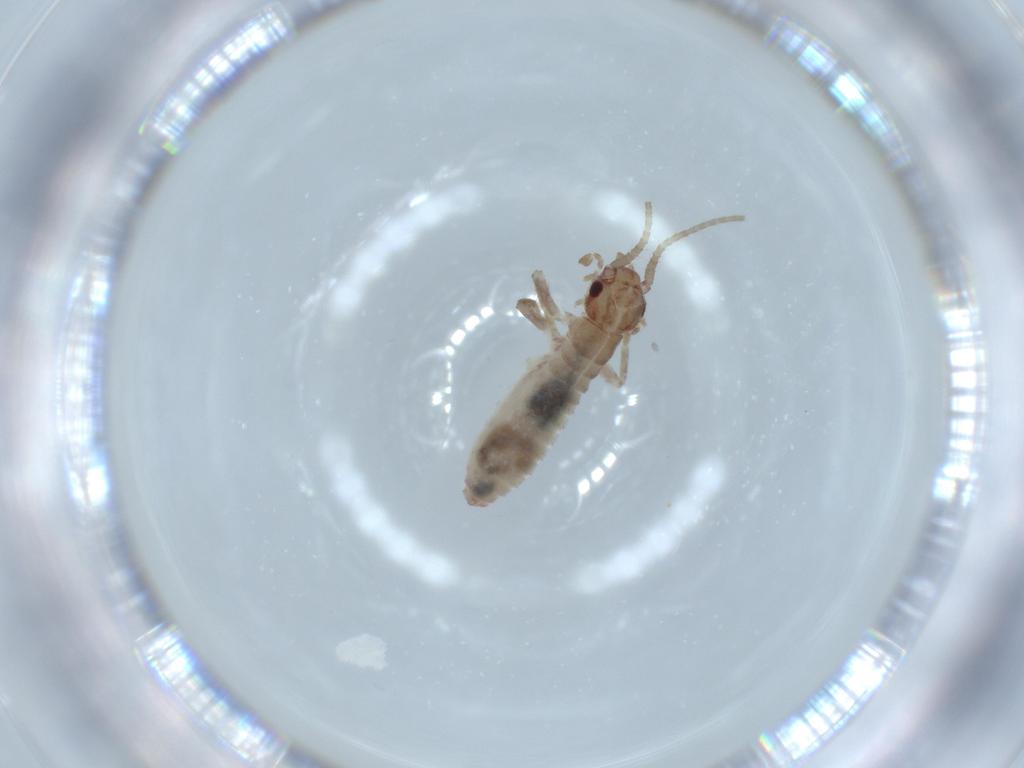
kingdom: Animalia
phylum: Arthropoda
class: Insecta
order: Orthoptera
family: Mogoplistidae
